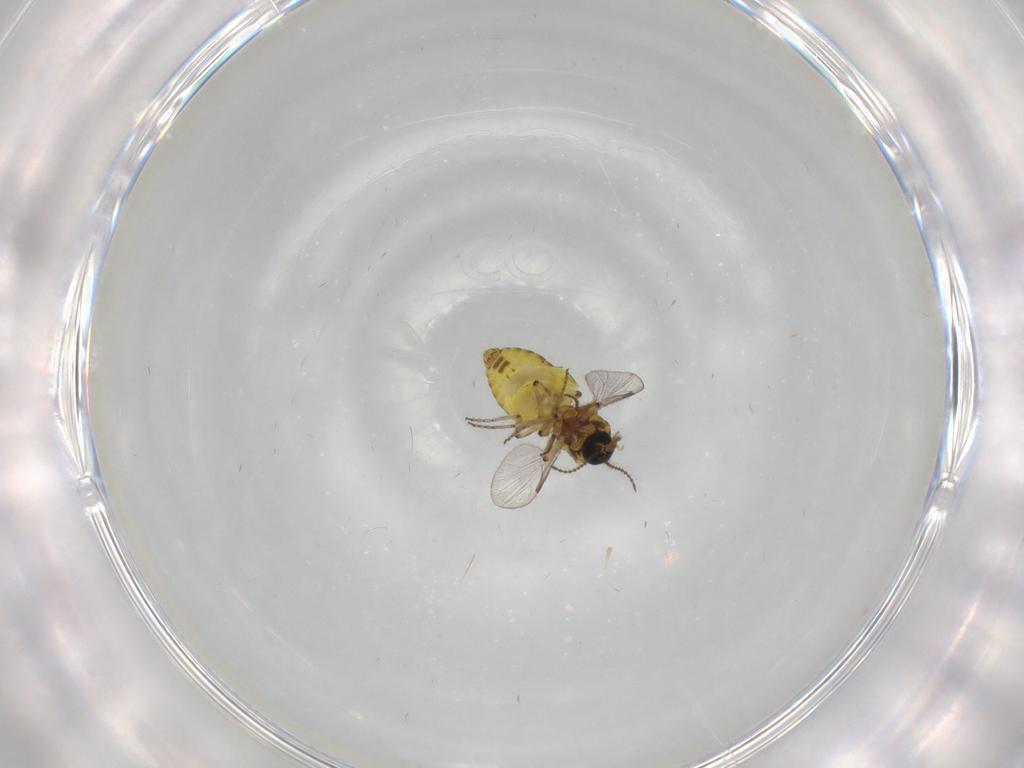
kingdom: Animalia
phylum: Arthropoda
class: Insecta
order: Diptera
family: Ceratopogonidae
